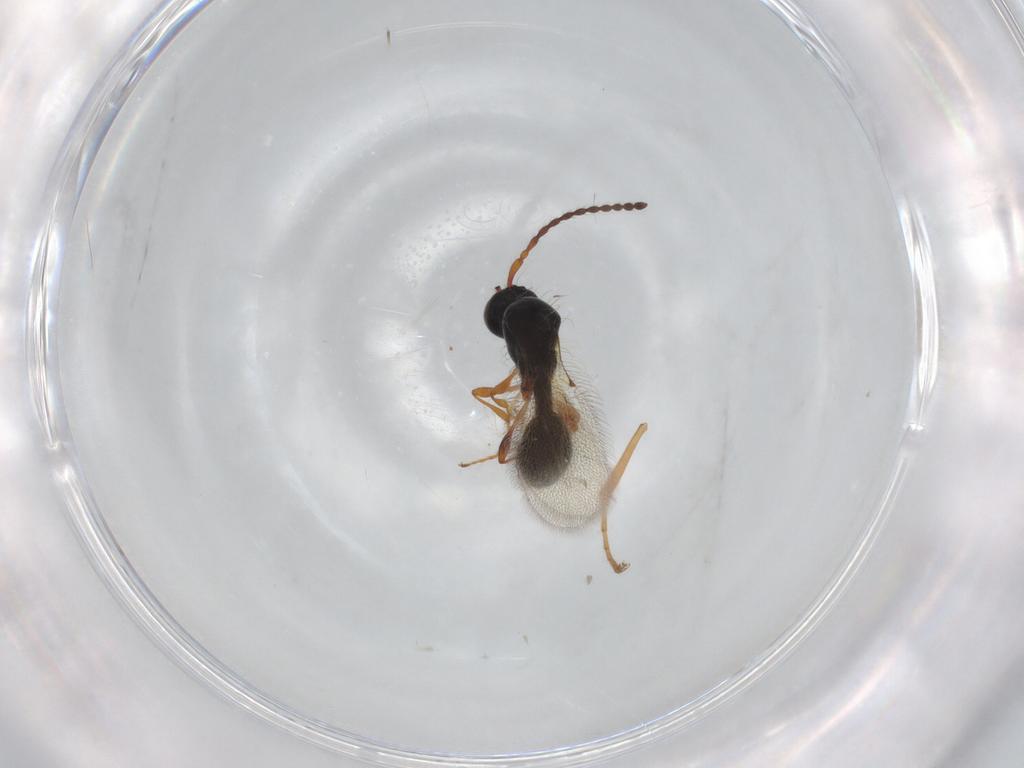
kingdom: Animalia
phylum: Arthropoda
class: Insecta
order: Hymenoptera
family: Ichneumonidae
